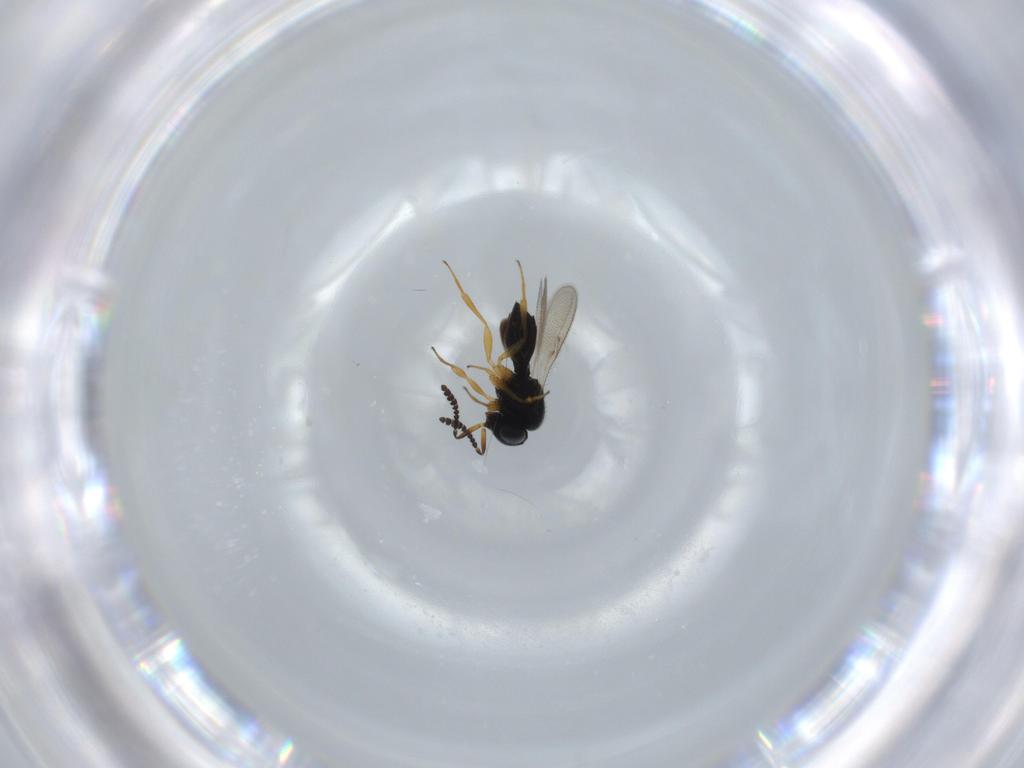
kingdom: Animalia
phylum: Arthropoda
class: Insecta
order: Hymenoptera
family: Scelionidae
